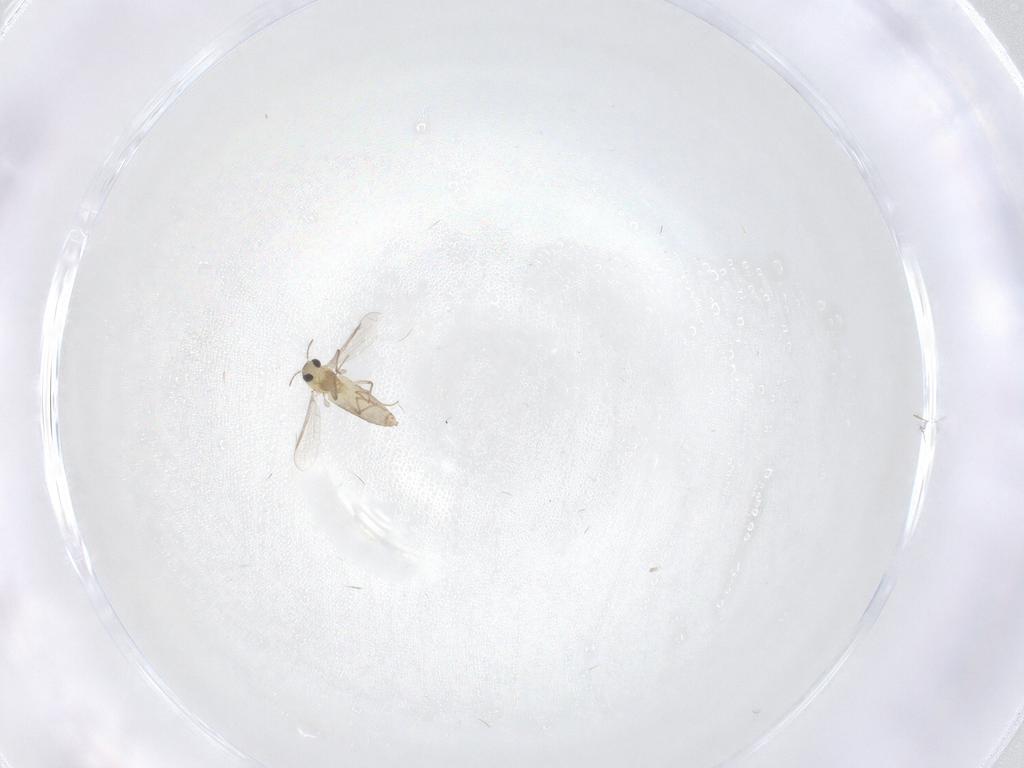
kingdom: Animalia
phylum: Arthropoda
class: Insecta
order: Diptera
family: Chironomidae
